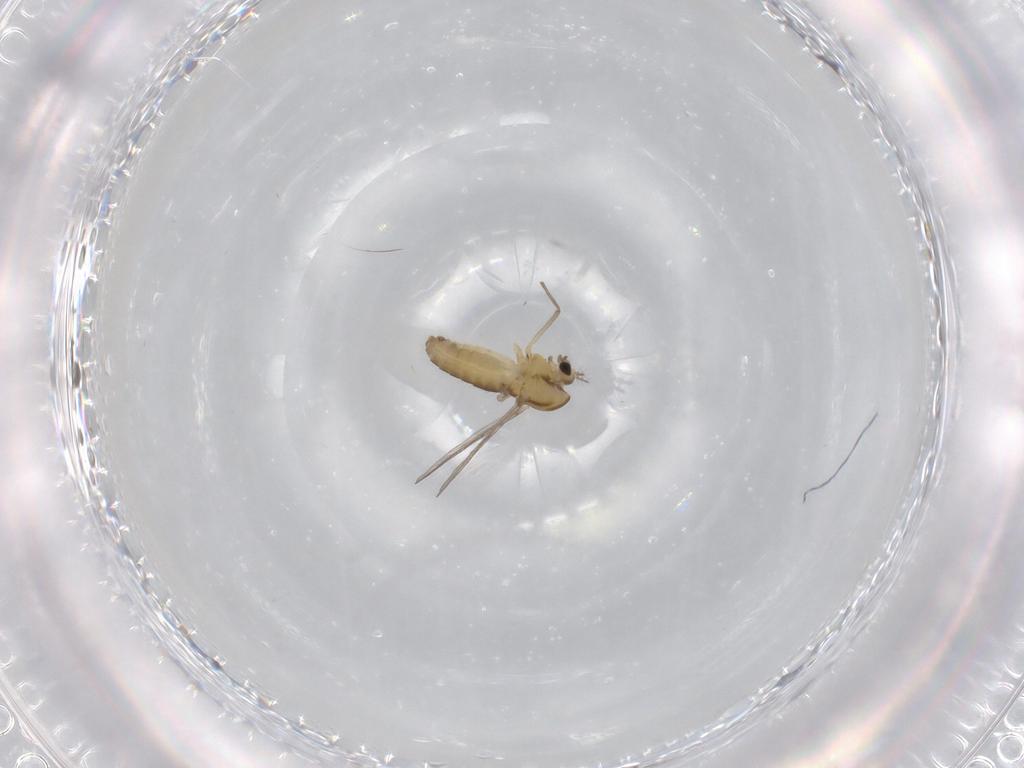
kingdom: Animalia
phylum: Arthropoda
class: Insecta
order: Diptera
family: Chironomidae
